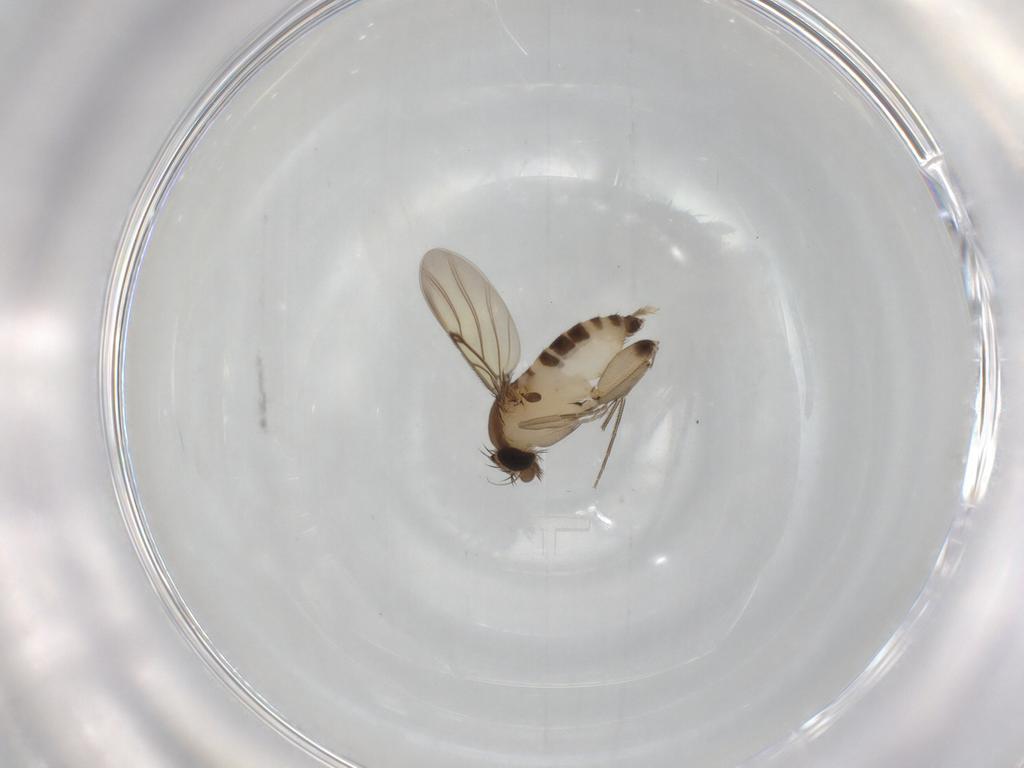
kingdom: Animalia
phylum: Arthropoda
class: Insecta
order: Diptera
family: Phoridae
